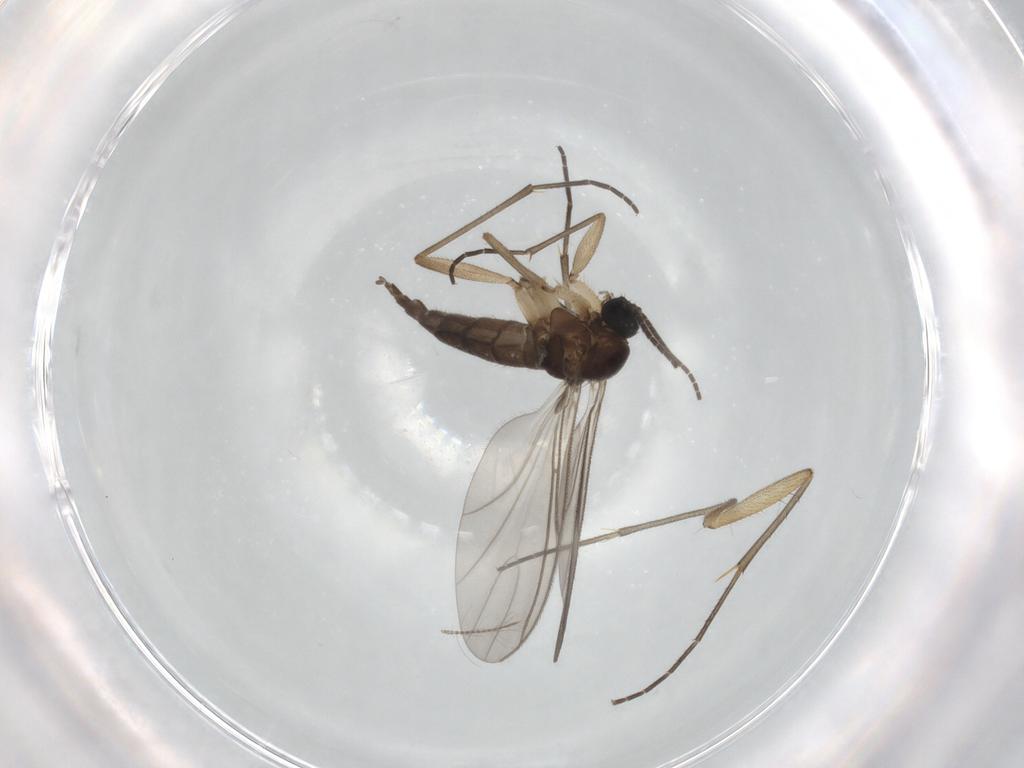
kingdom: Animalia
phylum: Arthropoda
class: Insecta
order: Diptera
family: Sciaridae
